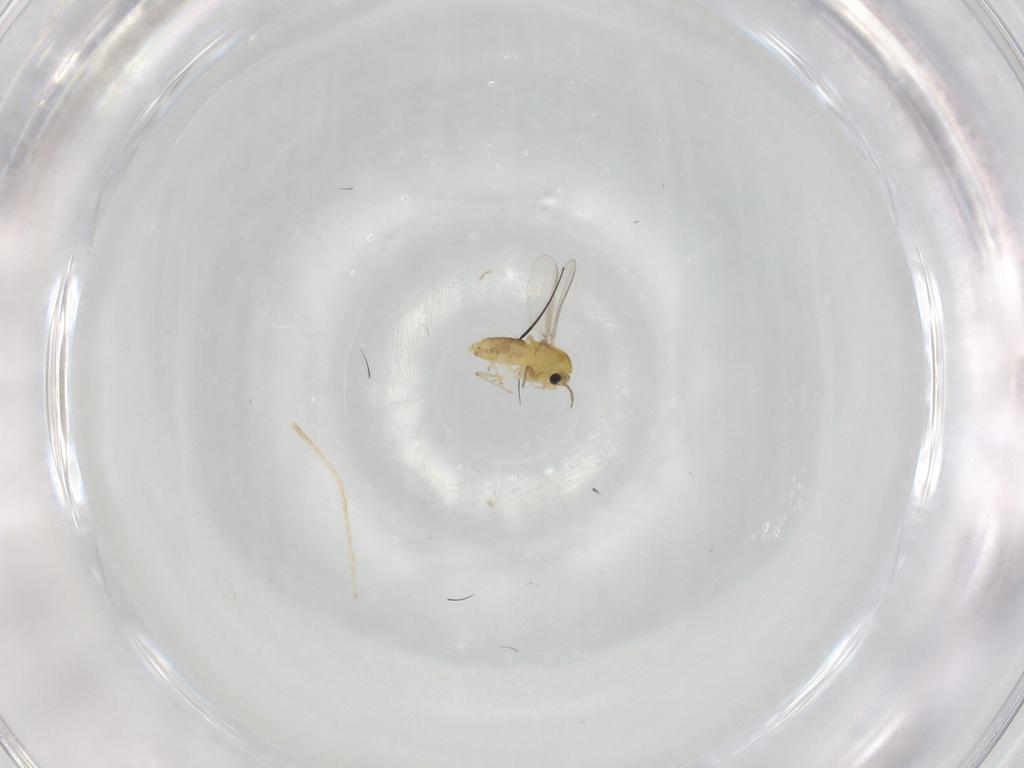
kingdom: Animalia
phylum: Arthropoda
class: Insecta
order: Diptera
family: Chironomidae
